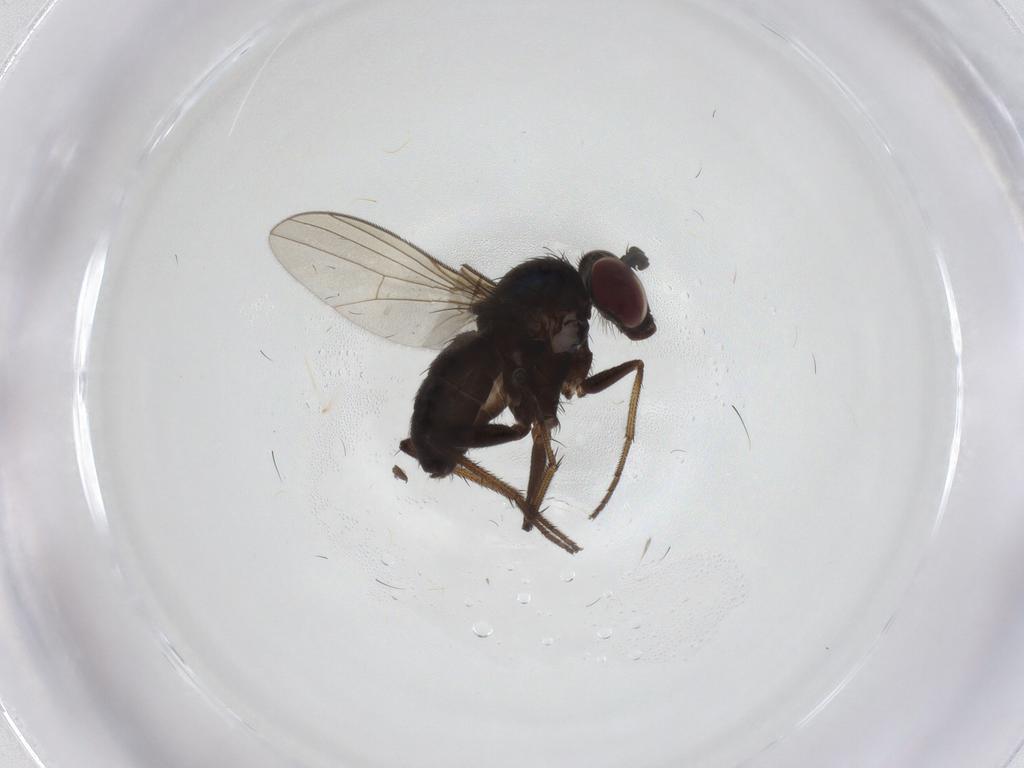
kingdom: Animalia
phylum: Arthropoda
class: Insecta
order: Diptera
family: Dolichopodidae
